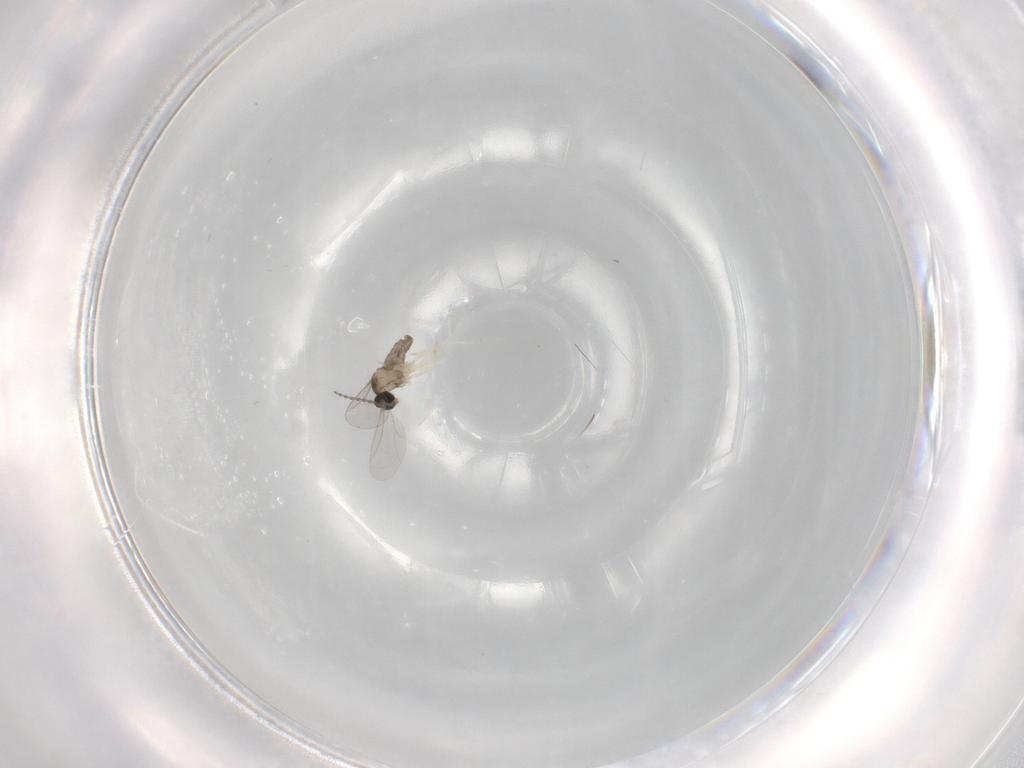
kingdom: Animalia
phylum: Arthropoda
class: Insecta
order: Diptera
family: Cecidomyiidae
